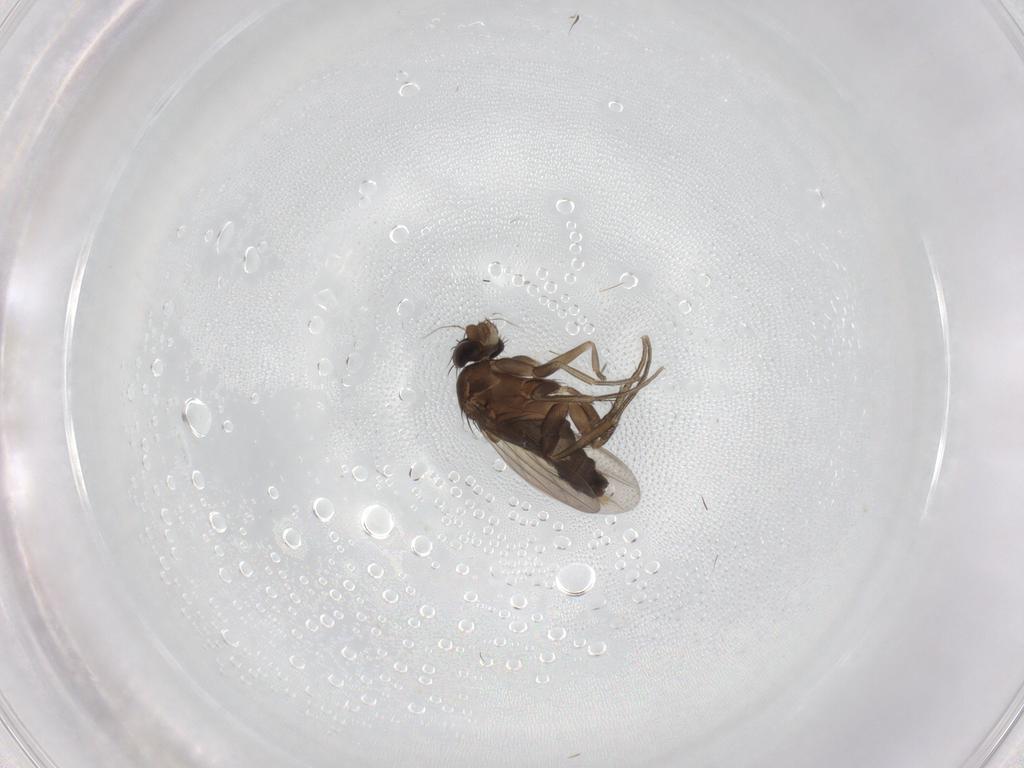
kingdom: Animalia
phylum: Arthropoda
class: Insecta
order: Diptera
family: Phoridae
